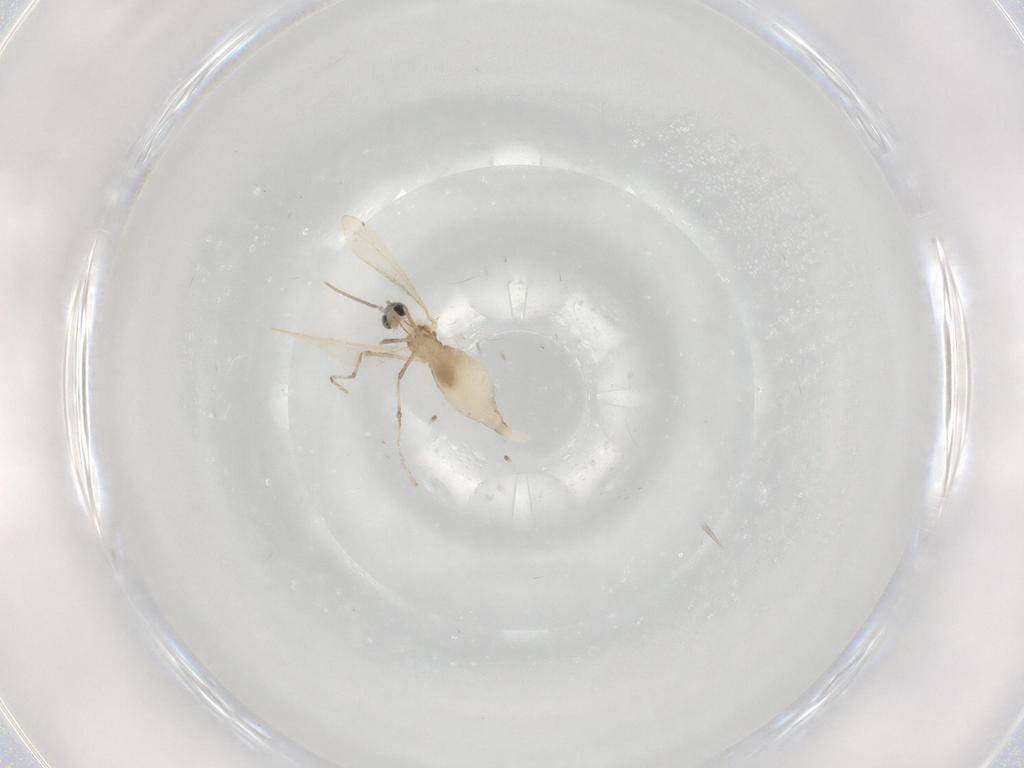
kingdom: Animalia
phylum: Arthropoda
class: Insecta
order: Diptera
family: Cecidomyiidae
